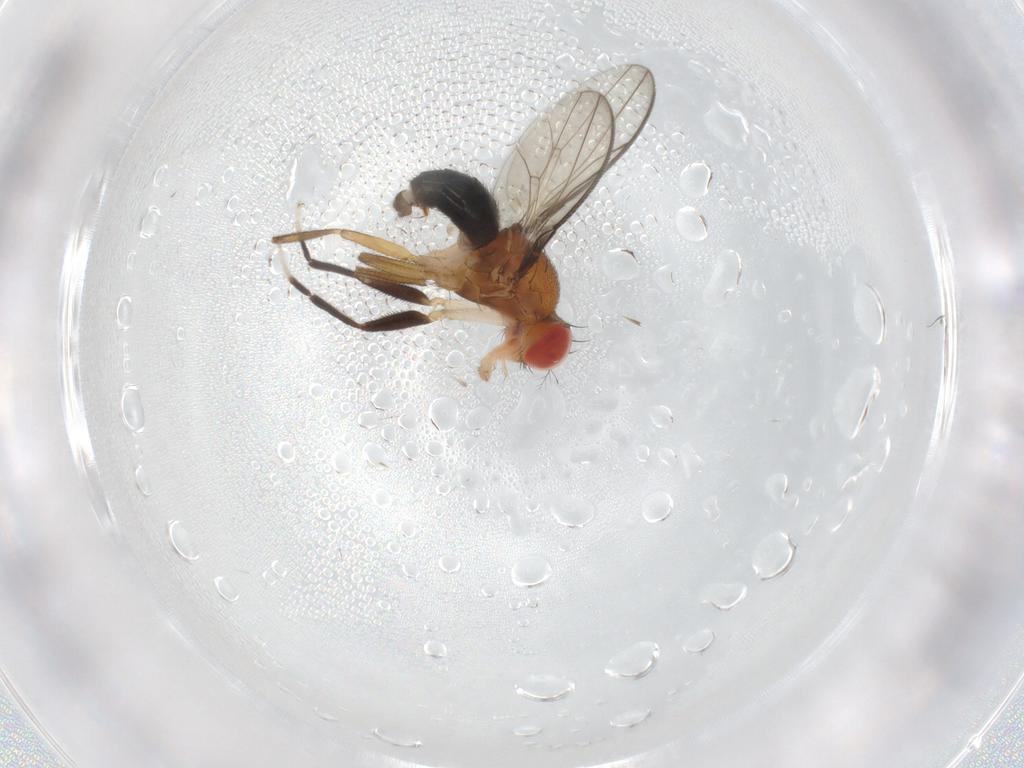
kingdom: Animalia
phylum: Arthropoda
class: Insecta
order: Diptera
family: Drosophilidae
